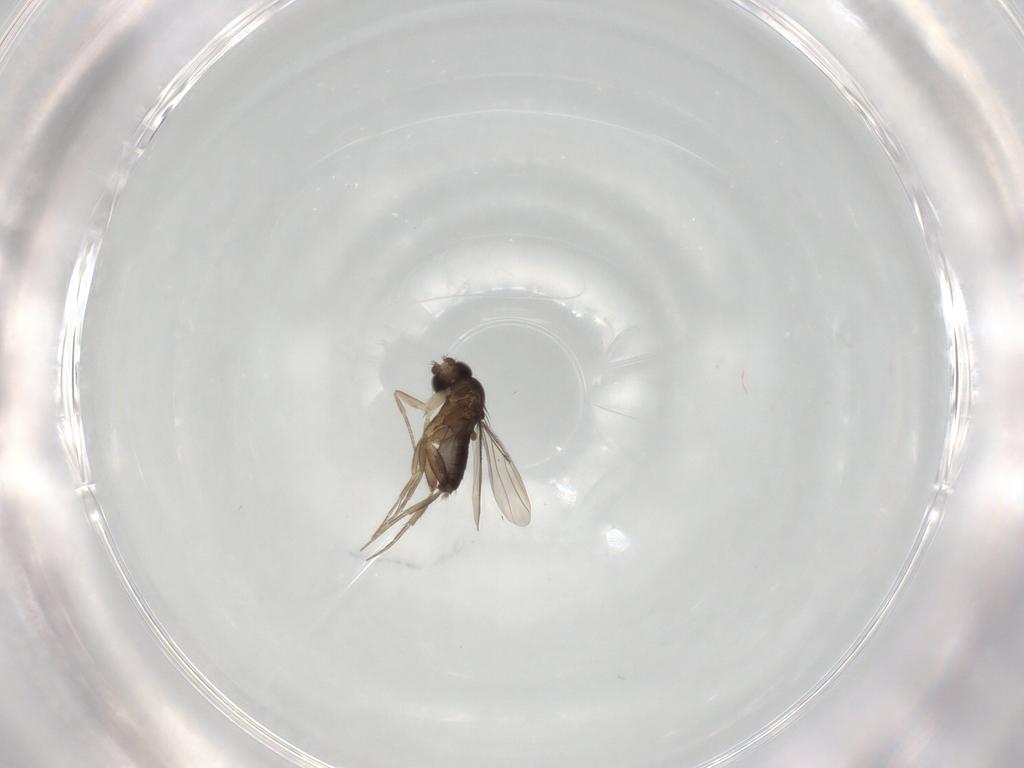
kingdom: Animalia
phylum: Arthropoda
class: Insecta
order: Diptera
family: Phoridae
